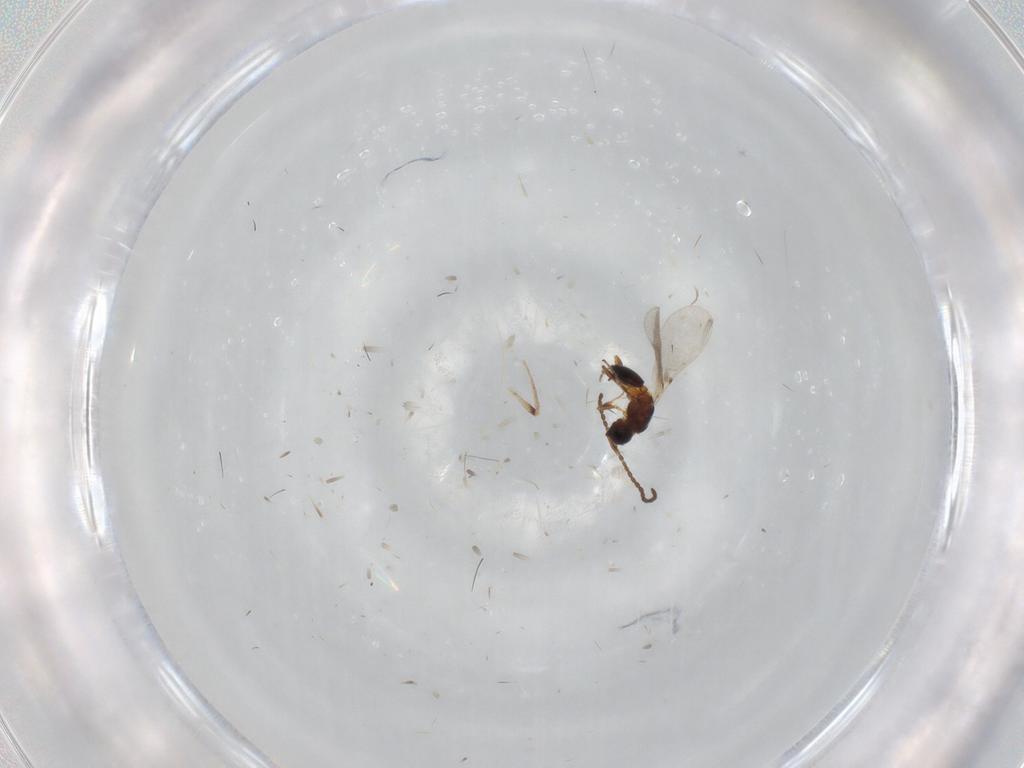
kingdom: Animalia
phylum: Arthropoda
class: Insecta
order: Hymenoptera
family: Diapriidae
